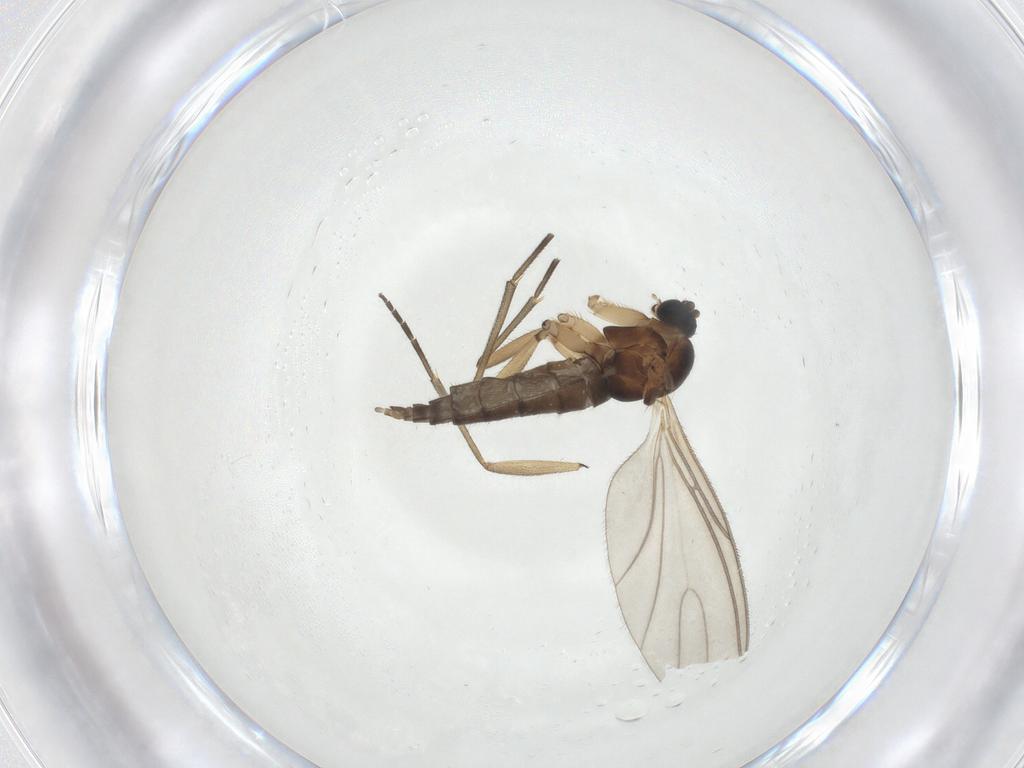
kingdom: Animalia
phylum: Arthropoda
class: Insecta
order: Diptera
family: Sciaridae
